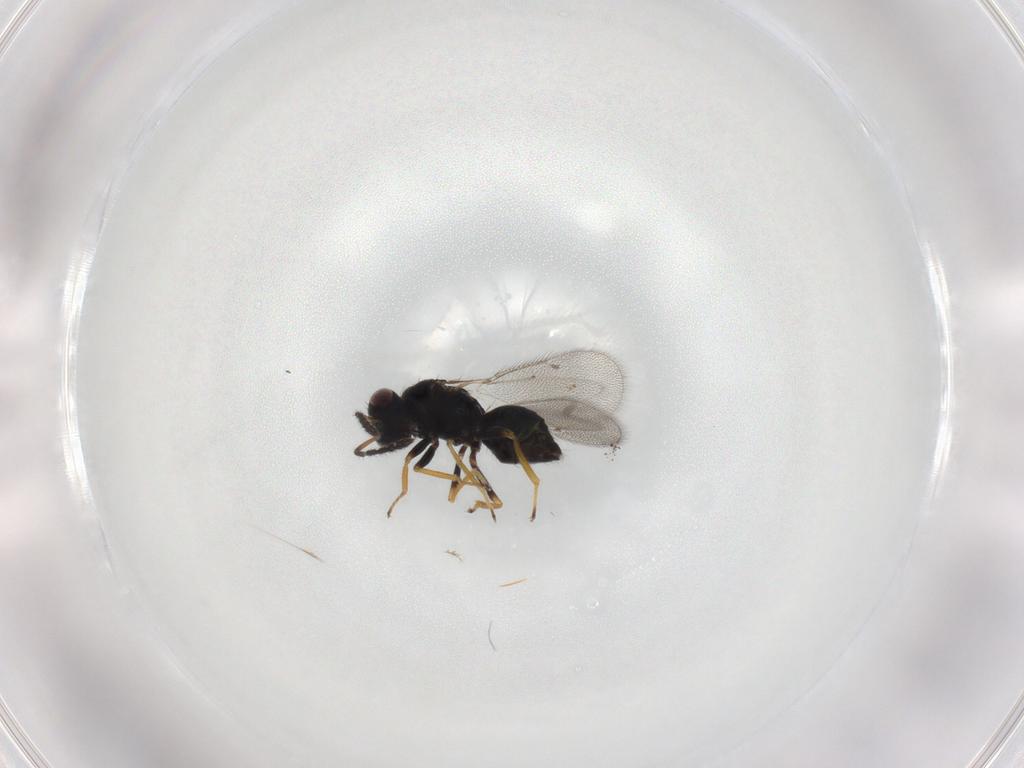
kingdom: Animalia
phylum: Arthropoda
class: Insecta
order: Hymenoptera
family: Eulophidae
